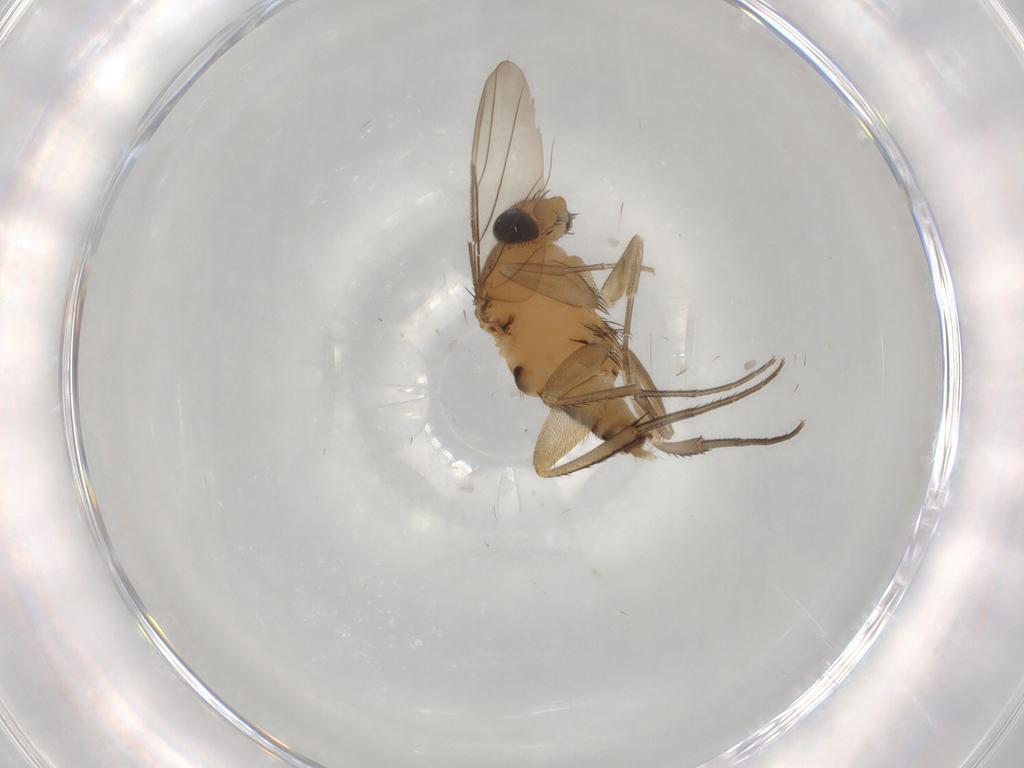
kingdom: Animalia
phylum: Arthropoda
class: Insecta
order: Diptera
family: Phoridae
